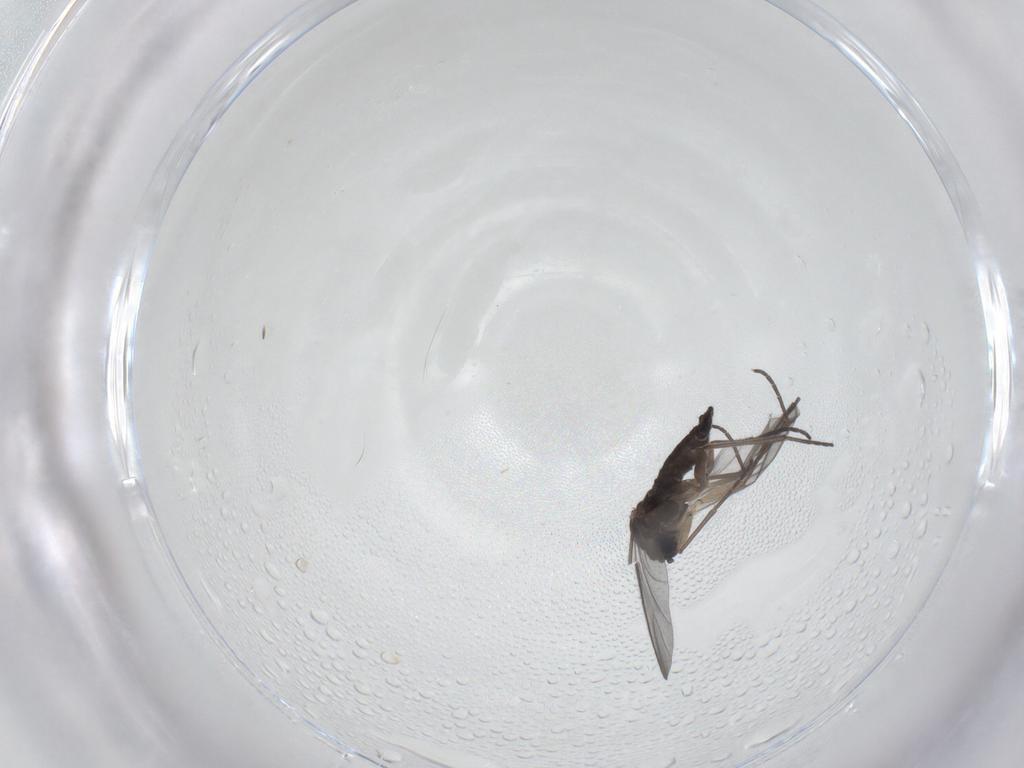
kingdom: Animalia
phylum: Arthropoda
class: Insecta
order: Diptera
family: Sciaridae
